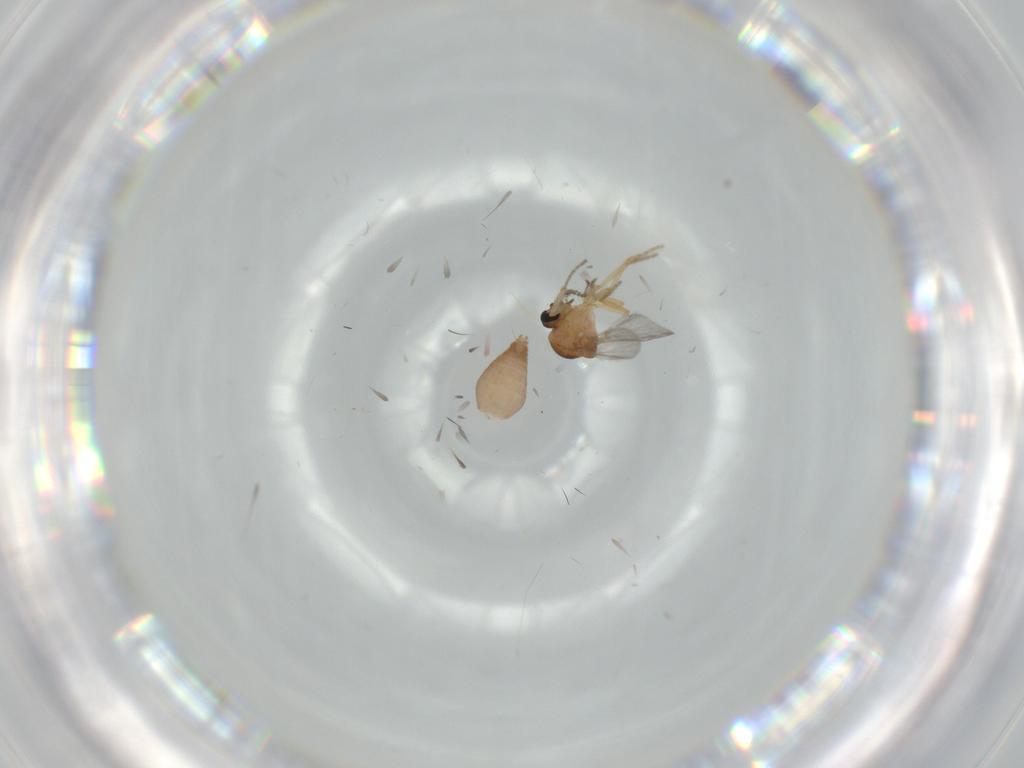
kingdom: Animalia
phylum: Arthropoda
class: Insecta
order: Diptera
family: Ceratopogonidae
